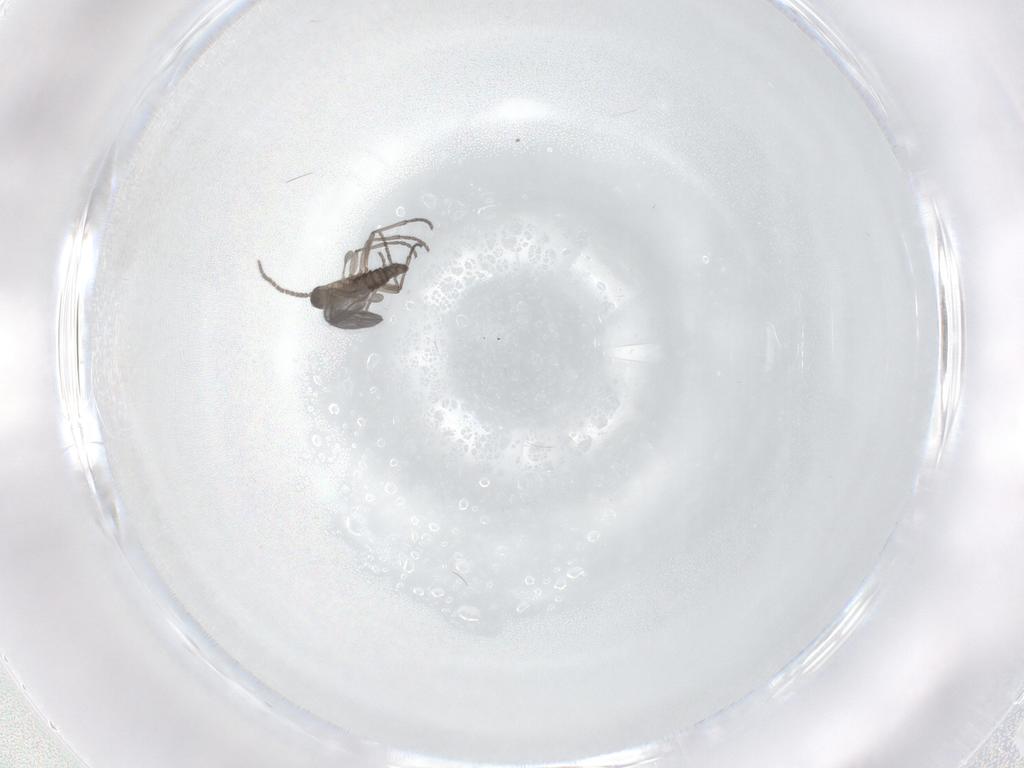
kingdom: Animalia
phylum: Arthropoda
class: Insecta
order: Diptera
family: Sciaridae
